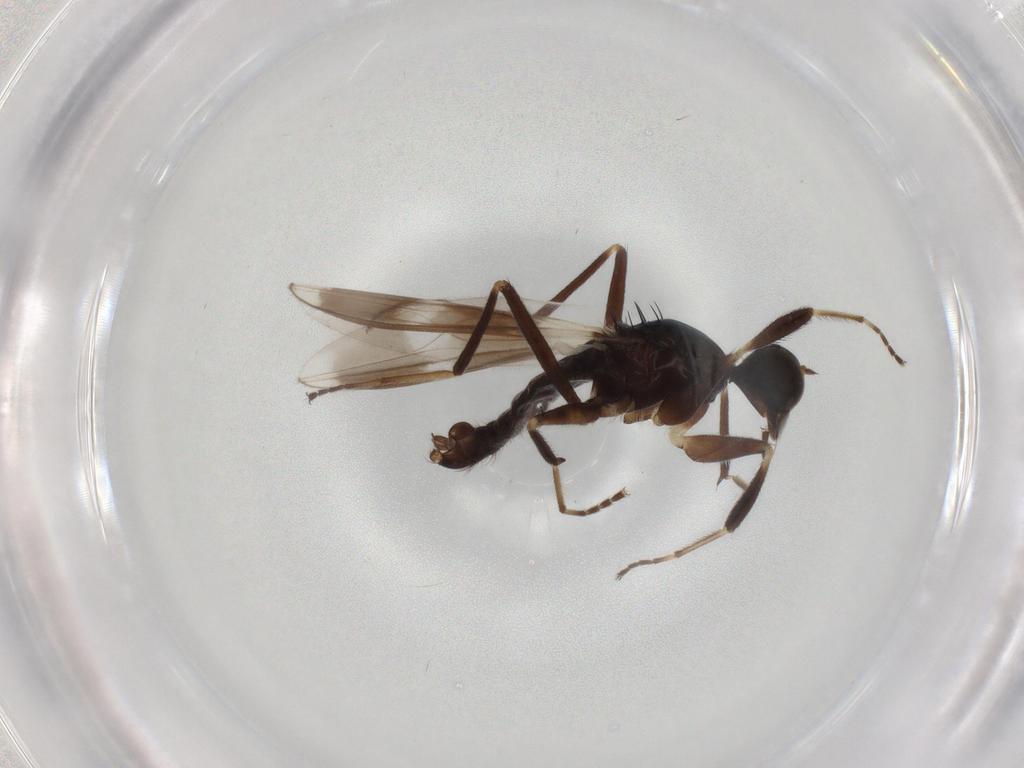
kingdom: Animalia
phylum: Arthropoda
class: Insecta
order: Diptera
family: Hybotidae
